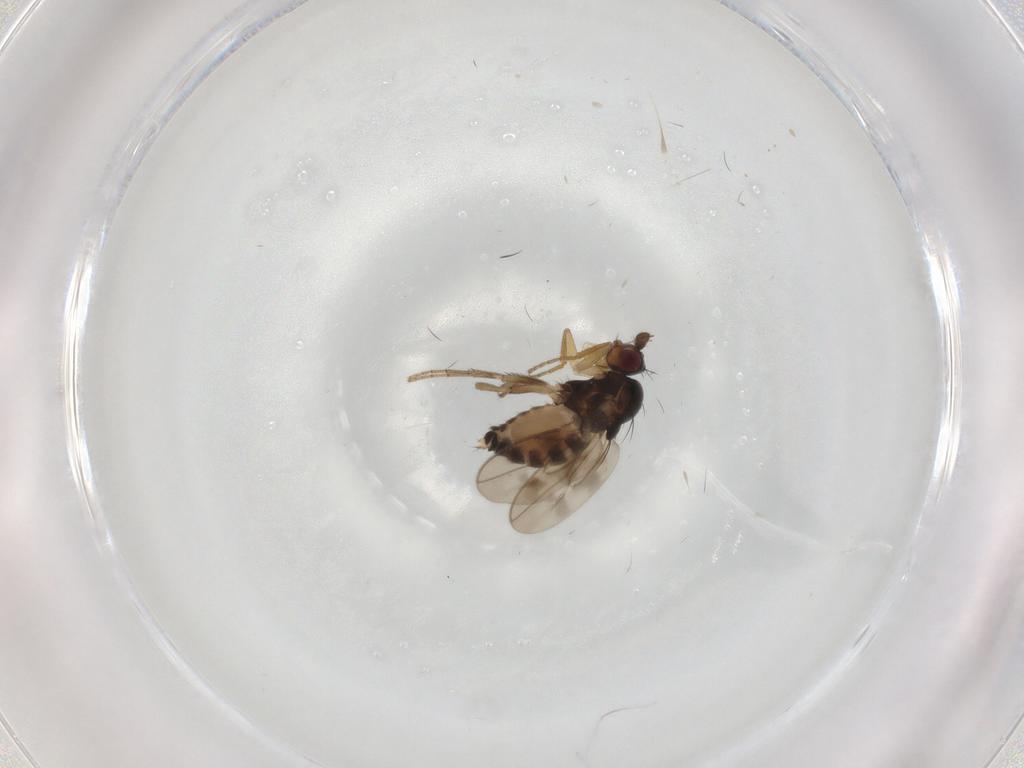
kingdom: Animalia
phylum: Arthropoda
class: Insecta
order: Diptera
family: Sphaeroceridae
